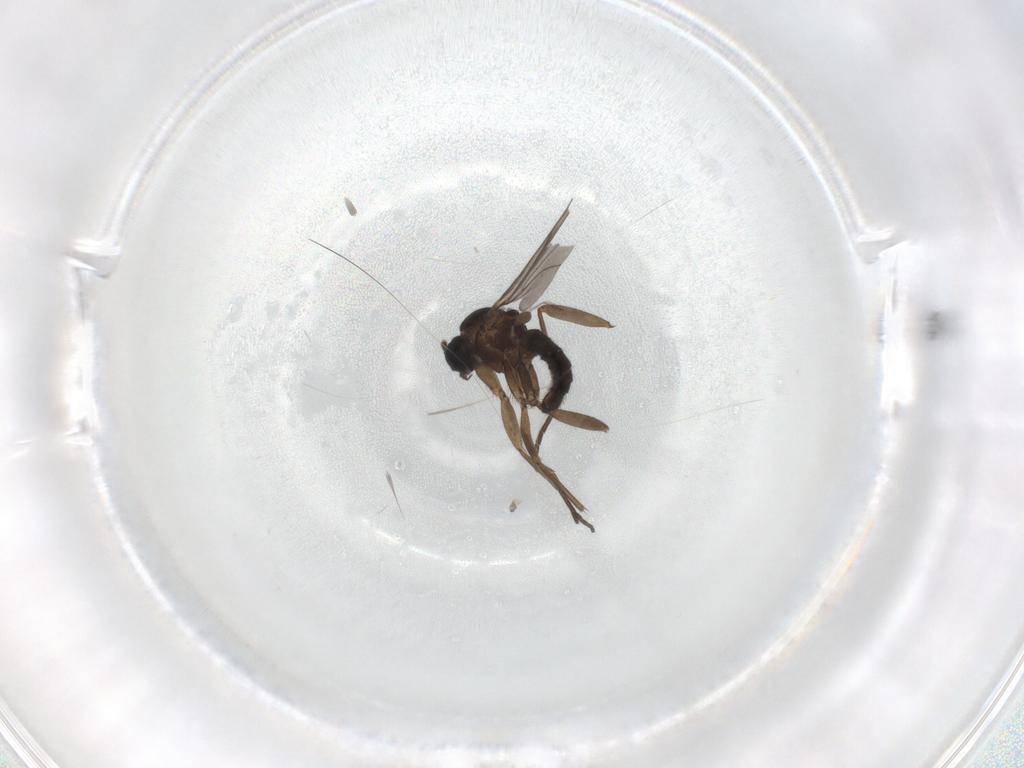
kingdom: Animalia
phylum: Arthropoda
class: Insecta
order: Diptera
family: Sciaridae
